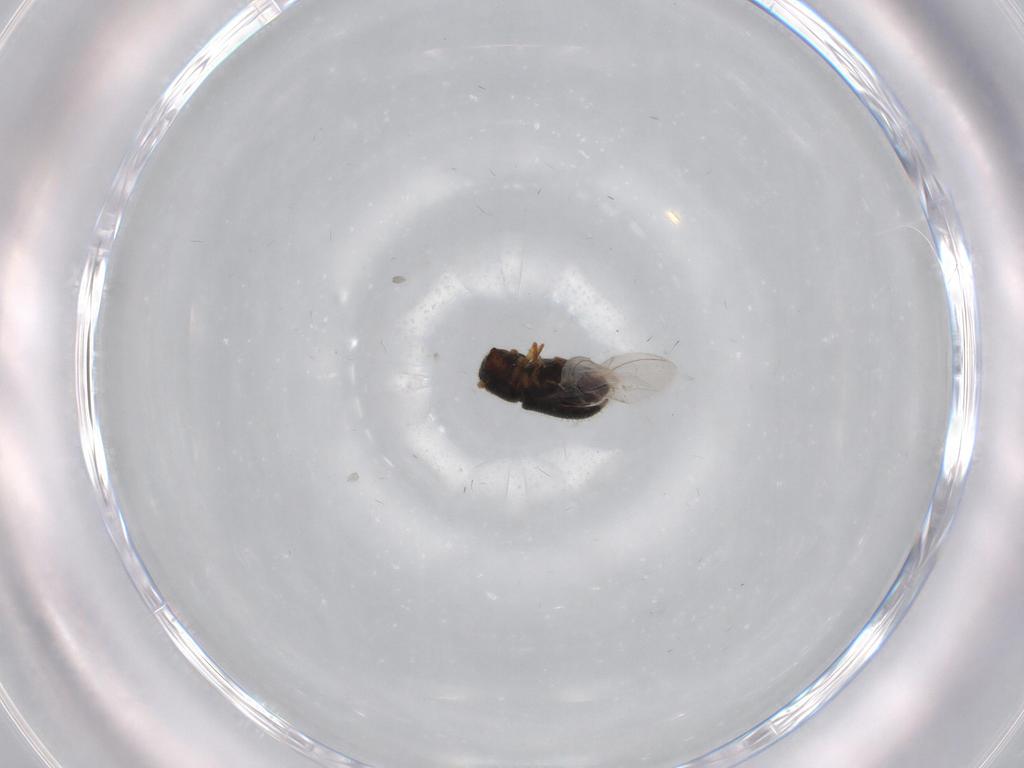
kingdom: Animalia
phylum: Arthropoda
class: Insecta
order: Coleoptera
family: Curculionidae
